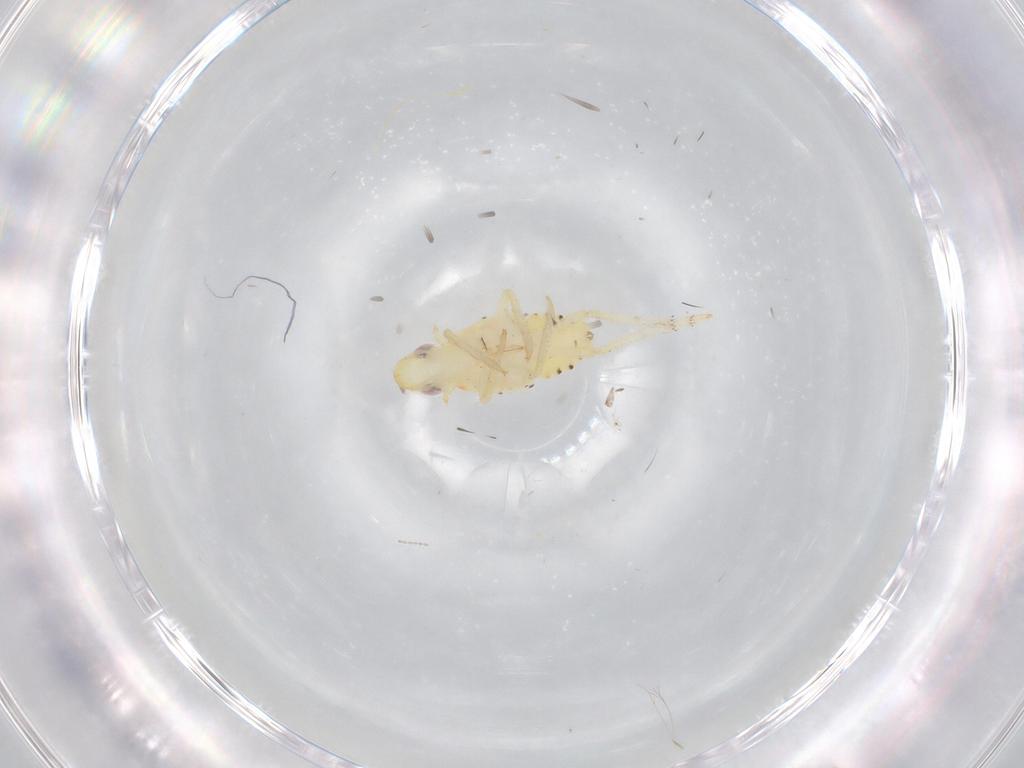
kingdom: Animalia
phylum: Arthropoda
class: Insecta
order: Hemiptera
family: Tropiduchidae
